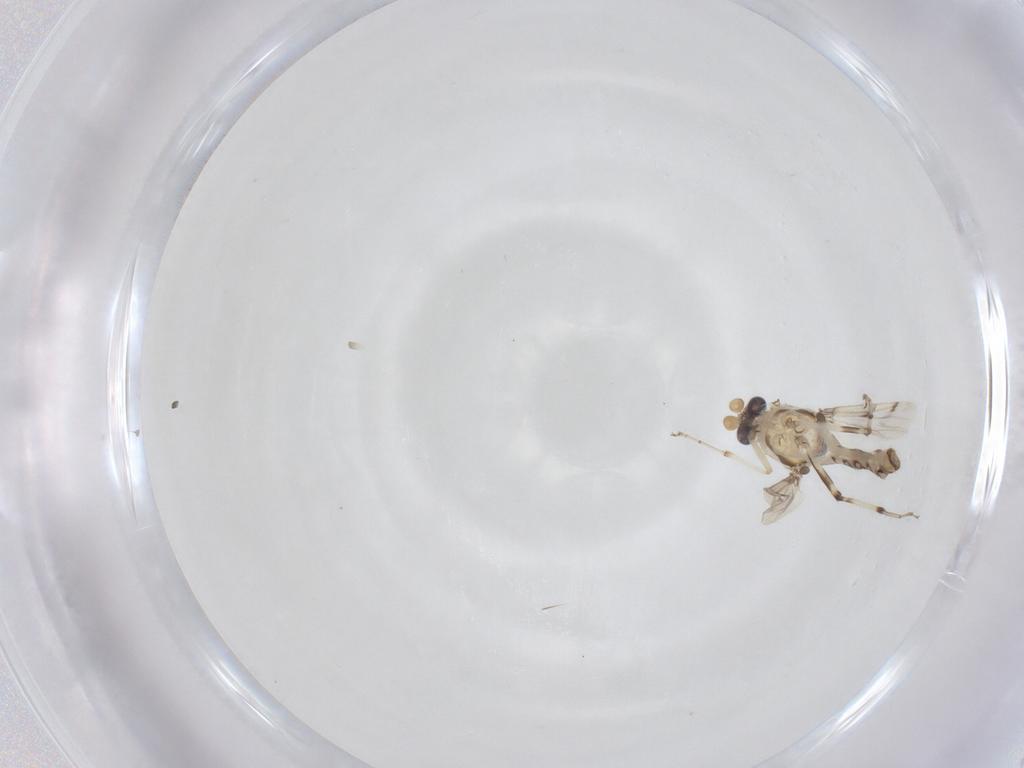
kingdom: Animalia
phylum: Arthropoda
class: Insecta
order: Diptera
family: Ceratopogonidae
